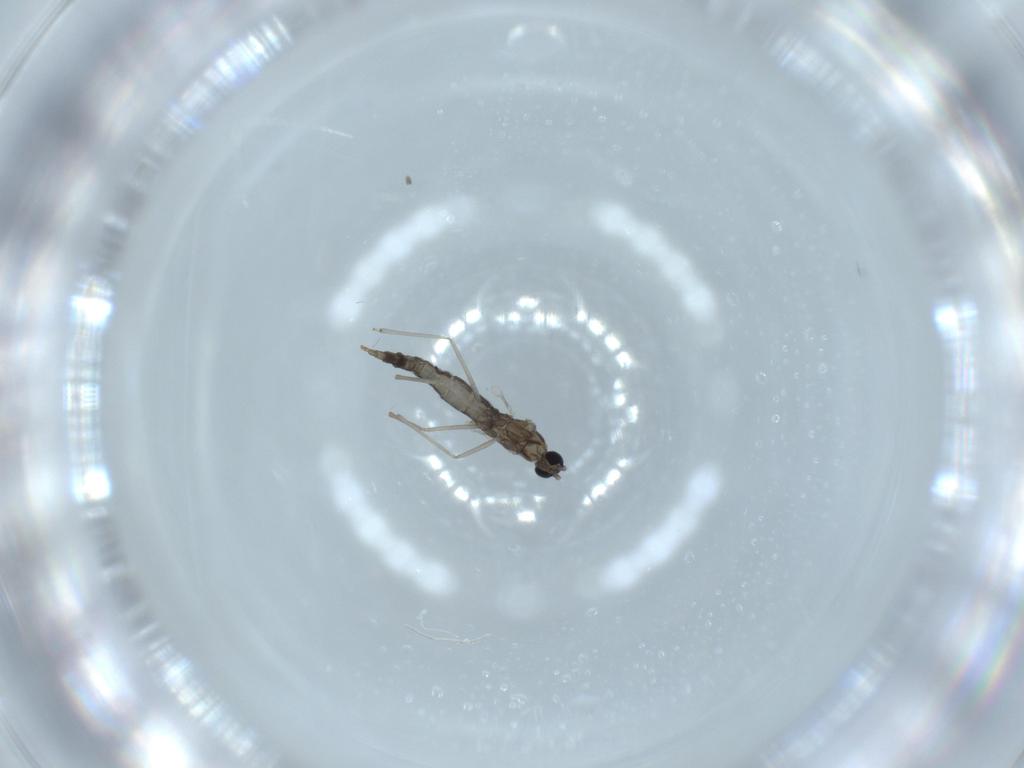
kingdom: Animalia
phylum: Arthropoda
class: Insecta
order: Diptera
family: Cecidomyiidae
